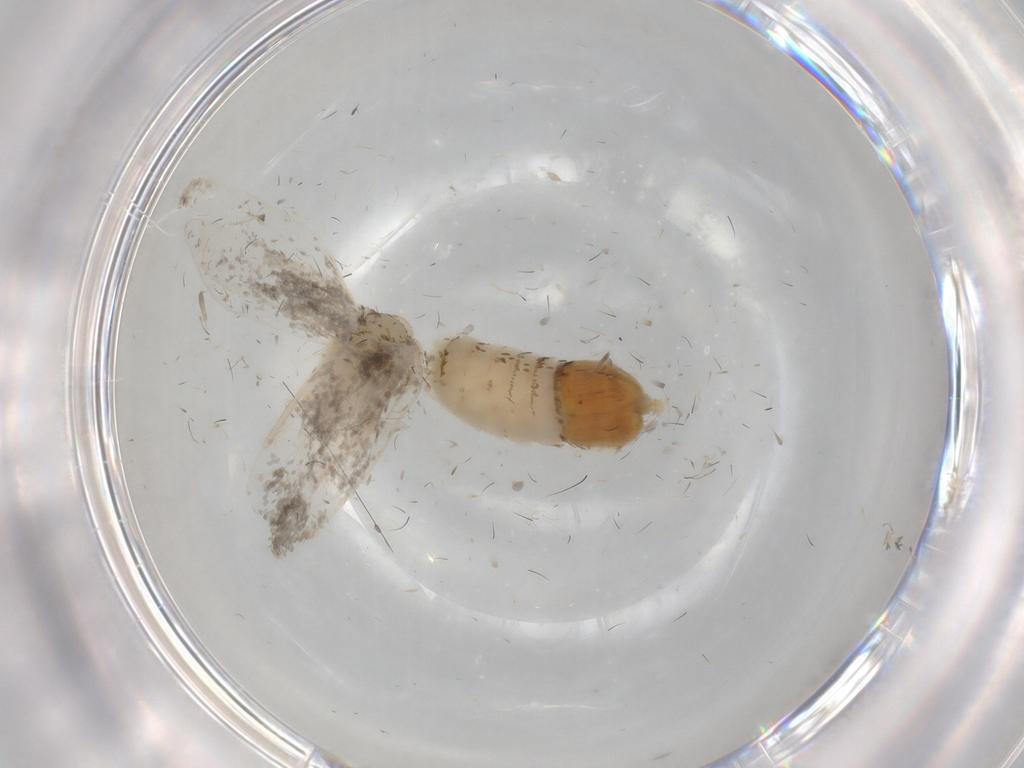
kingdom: Animalia
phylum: Arthropoda
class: Insecta
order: Lepidoptera
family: Psychidae
